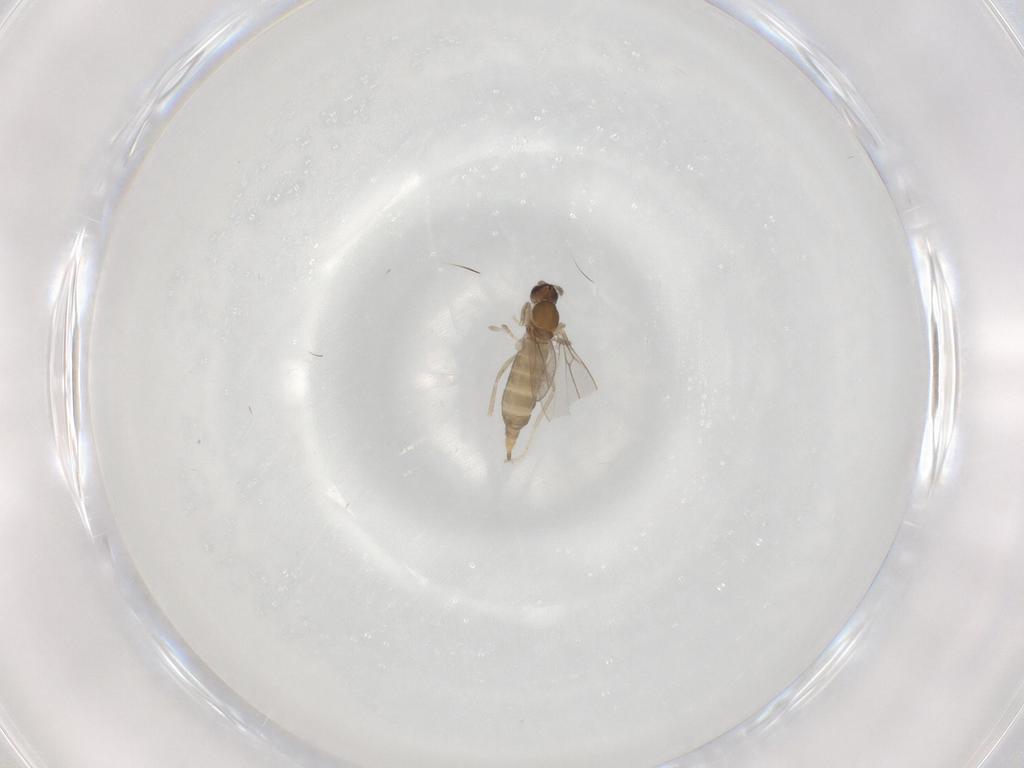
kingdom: Animalia
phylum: Arthropoda
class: Insecta
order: Diptera
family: Cecidomyiidae
